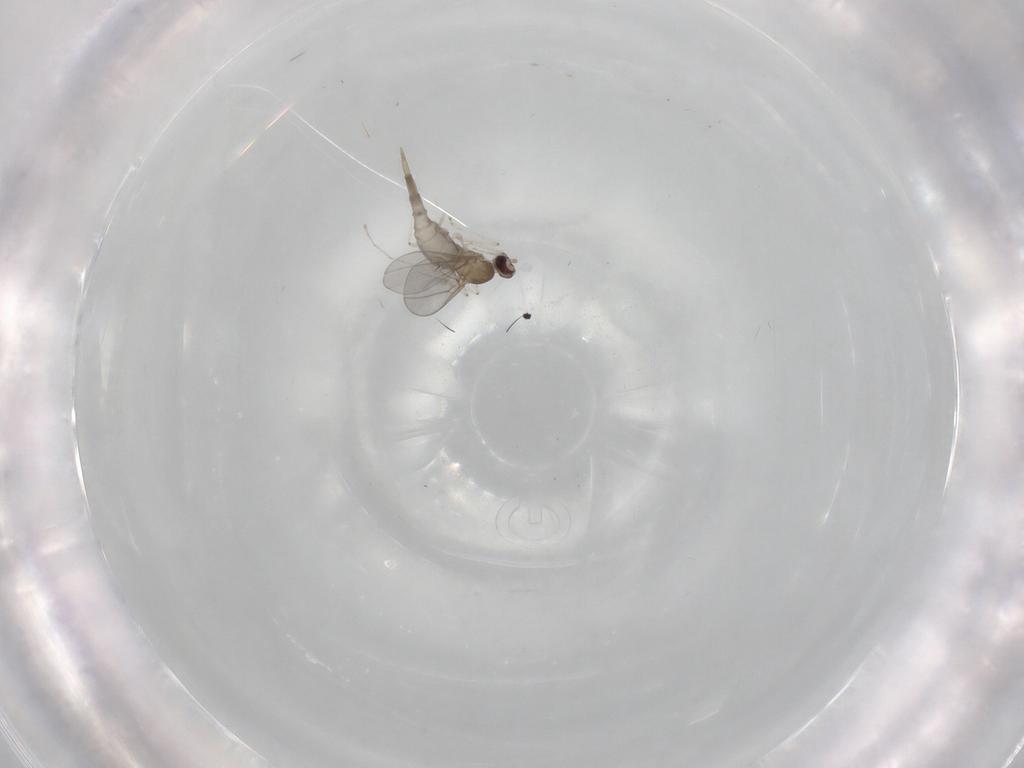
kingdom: Animalia
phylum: Arthropoda
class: Insecta
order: Diptera
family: Cecidomyiidae
